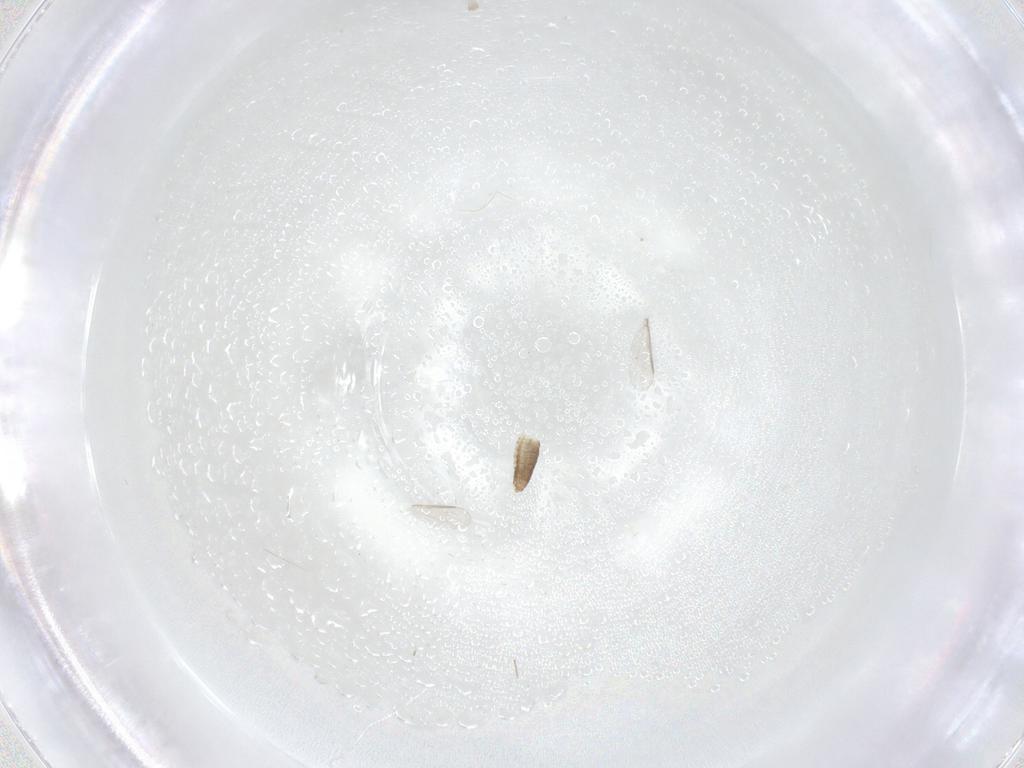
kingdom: Animalia
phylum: Arthropoda
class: Insecta
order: Diptera
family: Chironomidae
